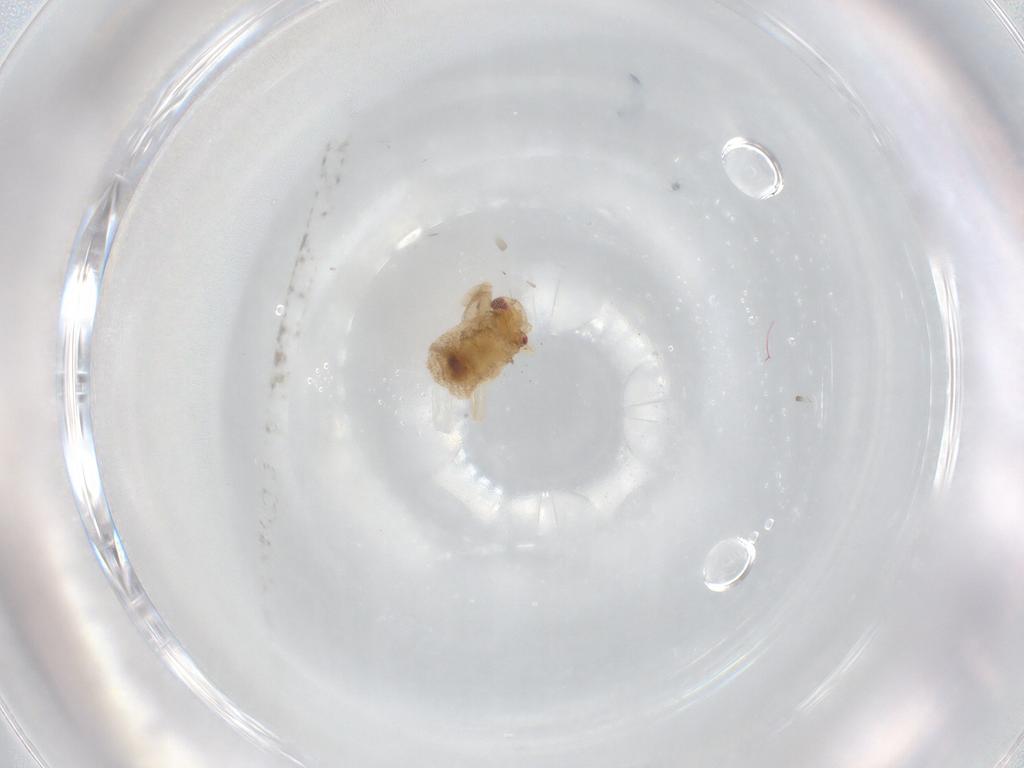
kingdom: Animalia
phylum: Arthropoda
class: Insecta
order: Hemiptera
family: Miridae
